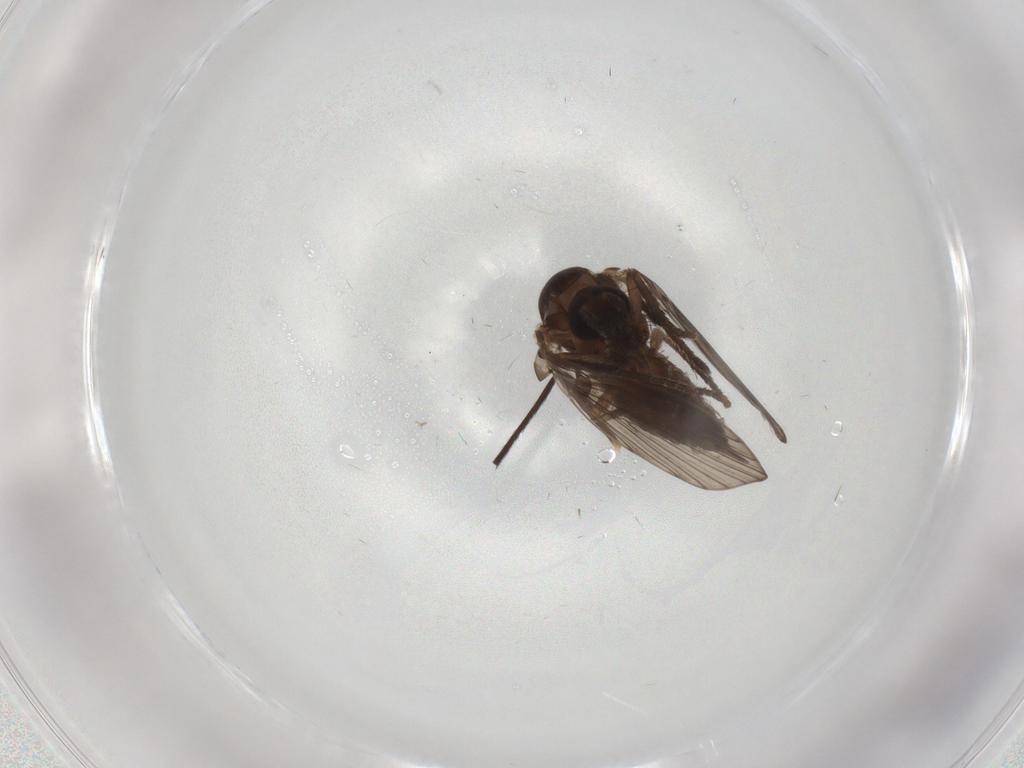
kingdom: Animalia
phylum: Arthropoda
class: Insecta
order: Diptera
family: Psychodidae
